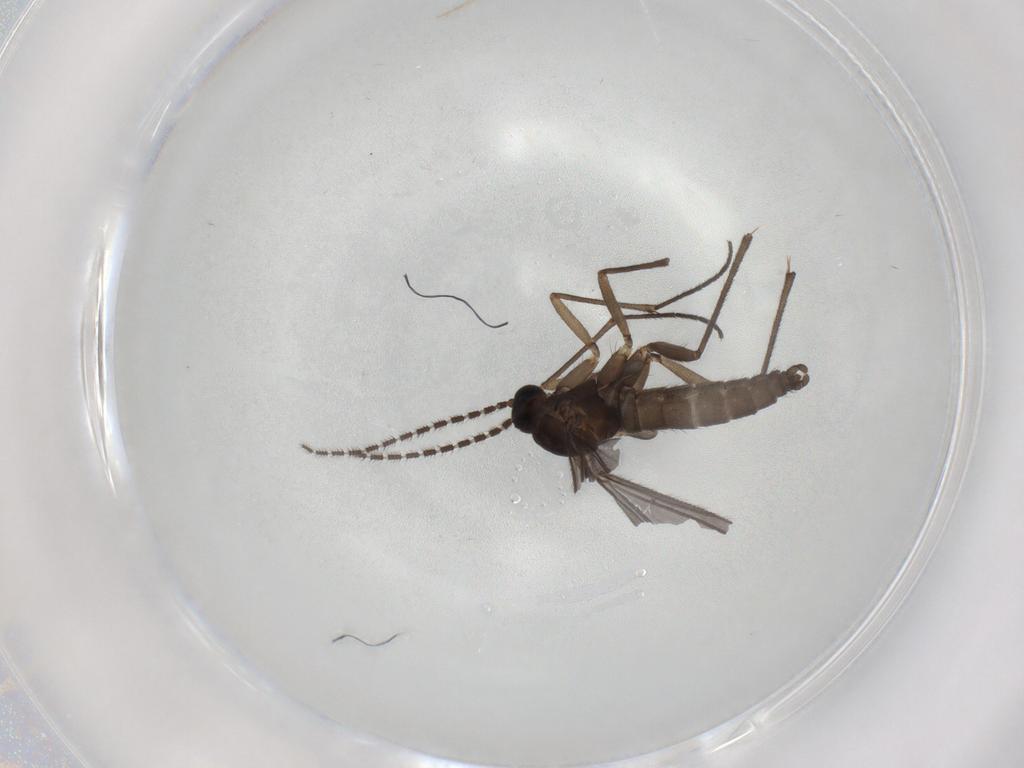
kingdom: Animalia
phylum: Arthropoda
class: Insecta
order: Diptera
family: Sciaridae
